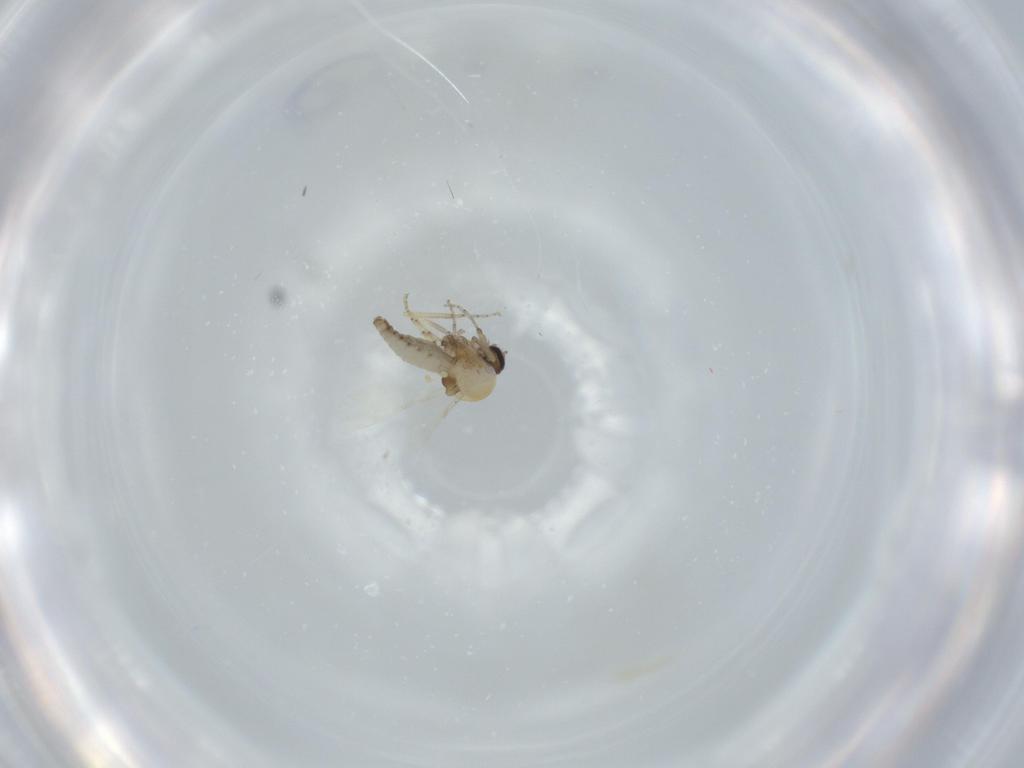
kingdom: Animalia
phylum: Arthropoda
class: Insecta
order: Diptera
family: Ceratopogonidae
